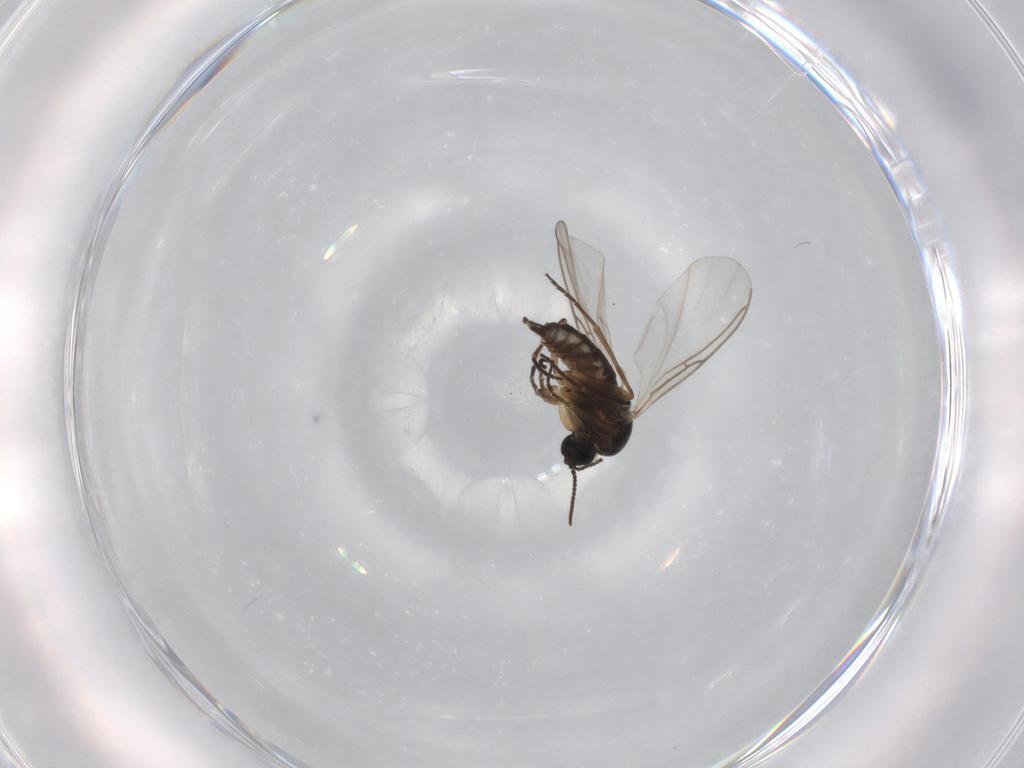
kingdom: Animalia
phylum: Arthropoda
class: Insecta
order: Diptera
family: Sciaridae
